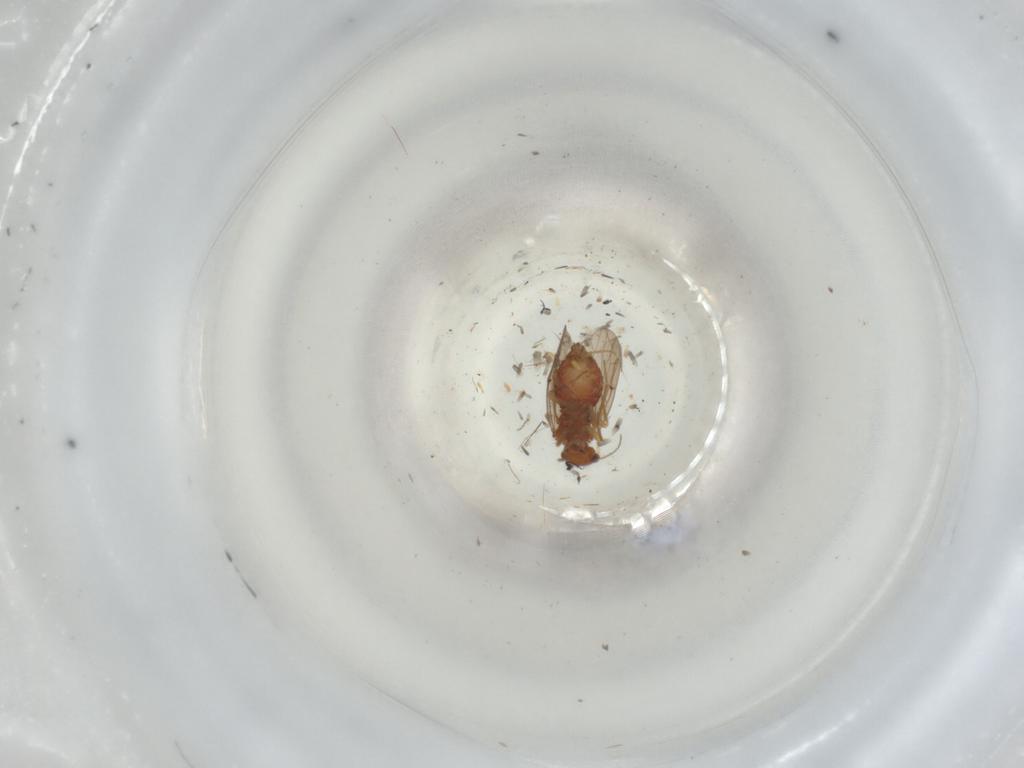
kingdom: Animalia
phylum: Arthropoda
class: Insecta
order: Psocodea
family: Ectopsocidae
